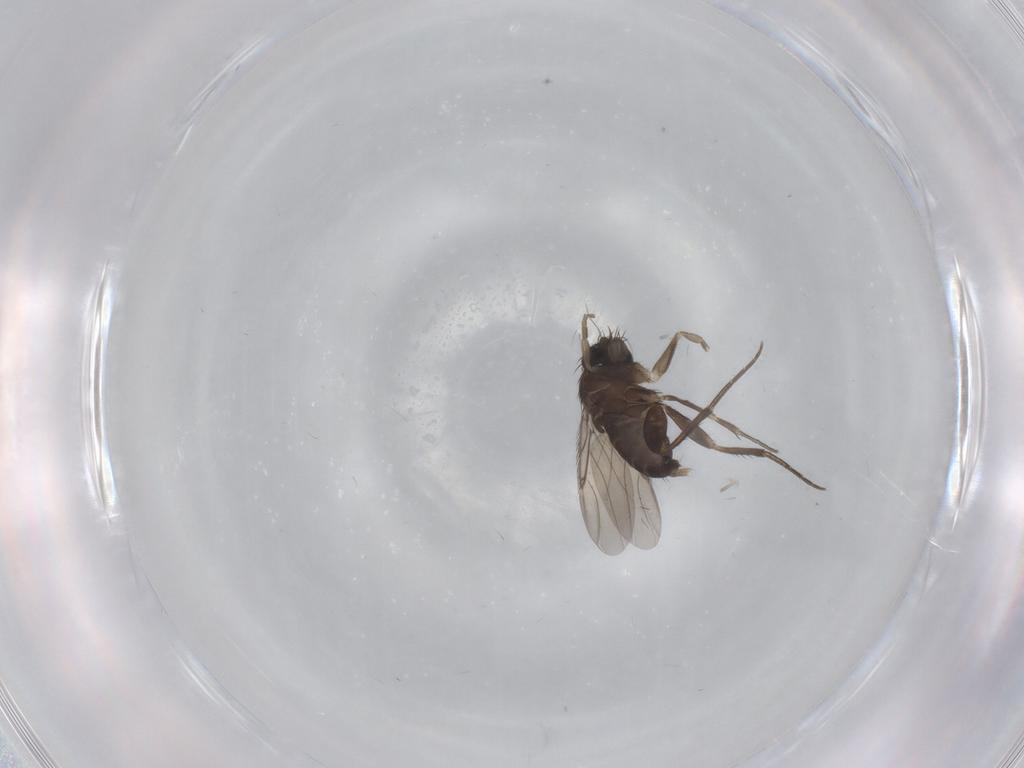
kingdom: Animalia
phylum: Arthropoda
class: Insecta
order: Diptera
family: Phoridae
